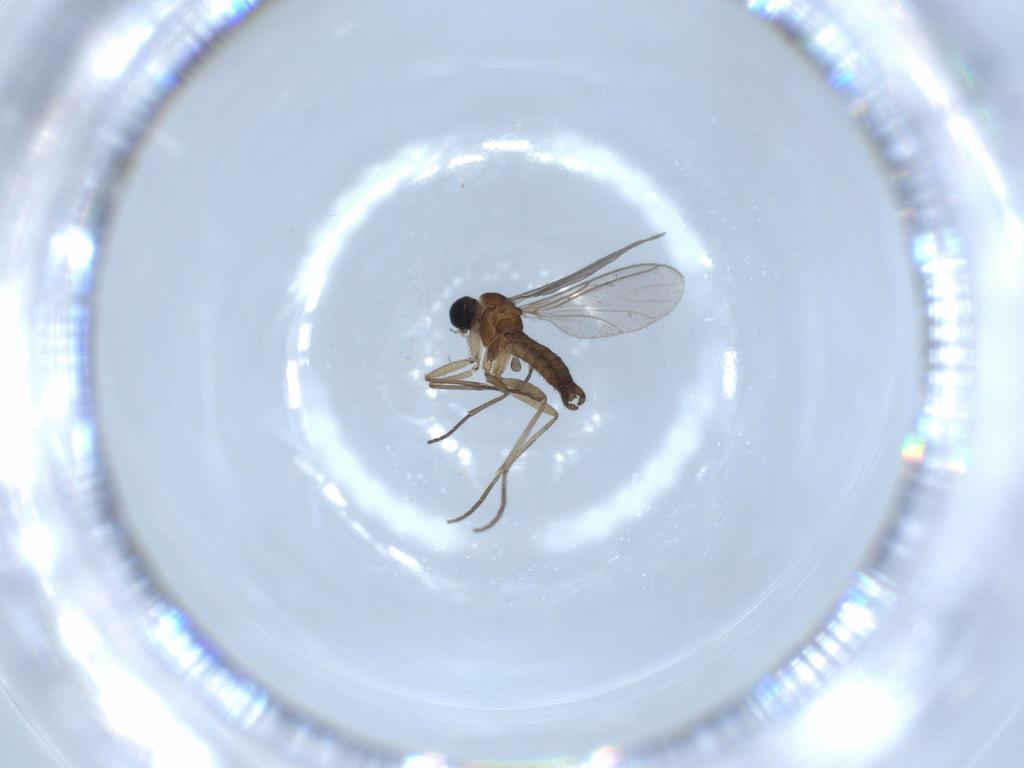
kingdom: Animalia
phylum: Arthropoda
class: Insecta
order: Diptera
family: Sciaridae
